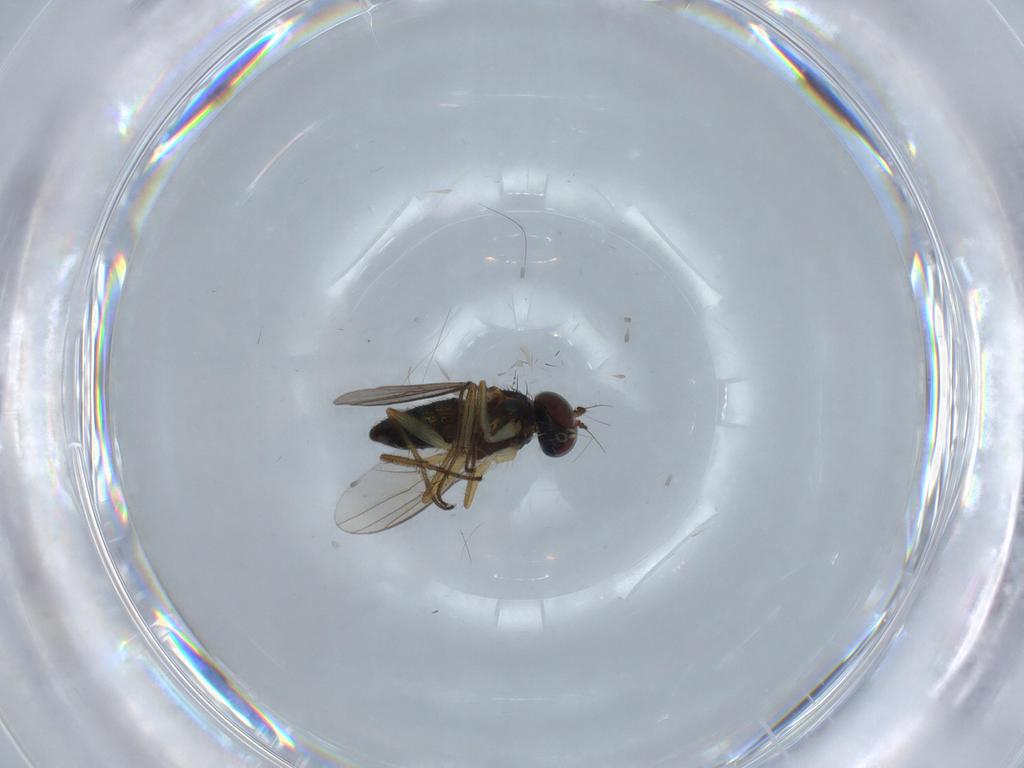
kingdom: Animalia
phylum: Arthropoda
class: Insecta
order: Diptera
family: Dolichopodidae
